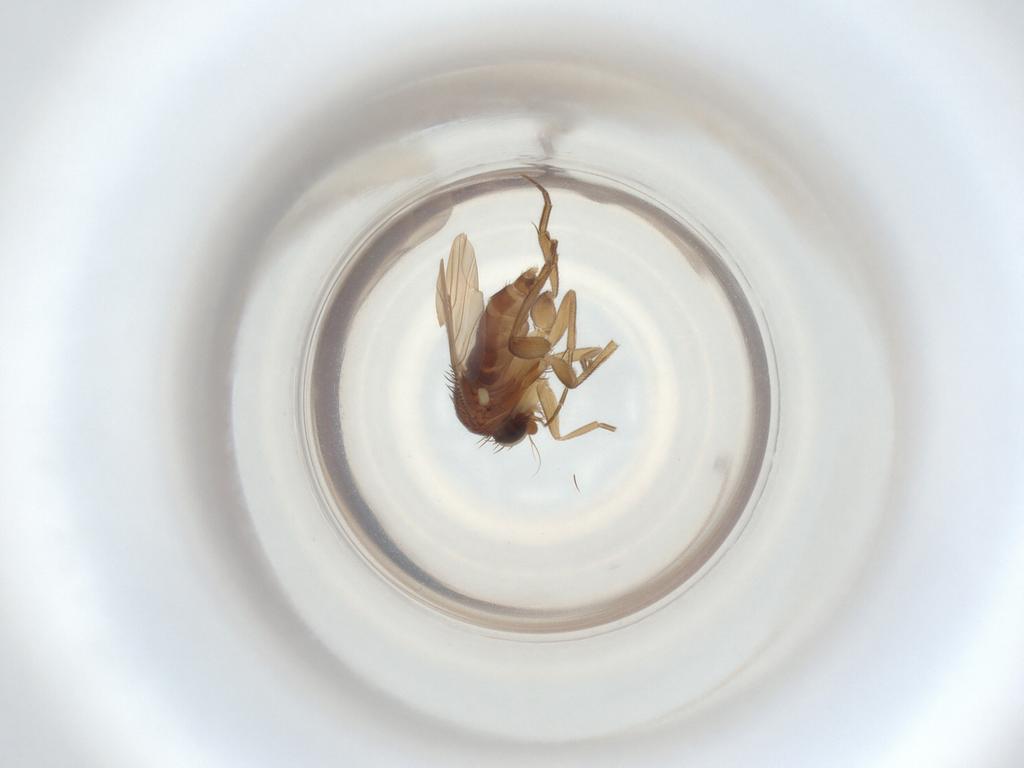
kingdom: Animalia
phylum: Arthropoda
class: Insecta
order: Diptera
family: Phoridae
